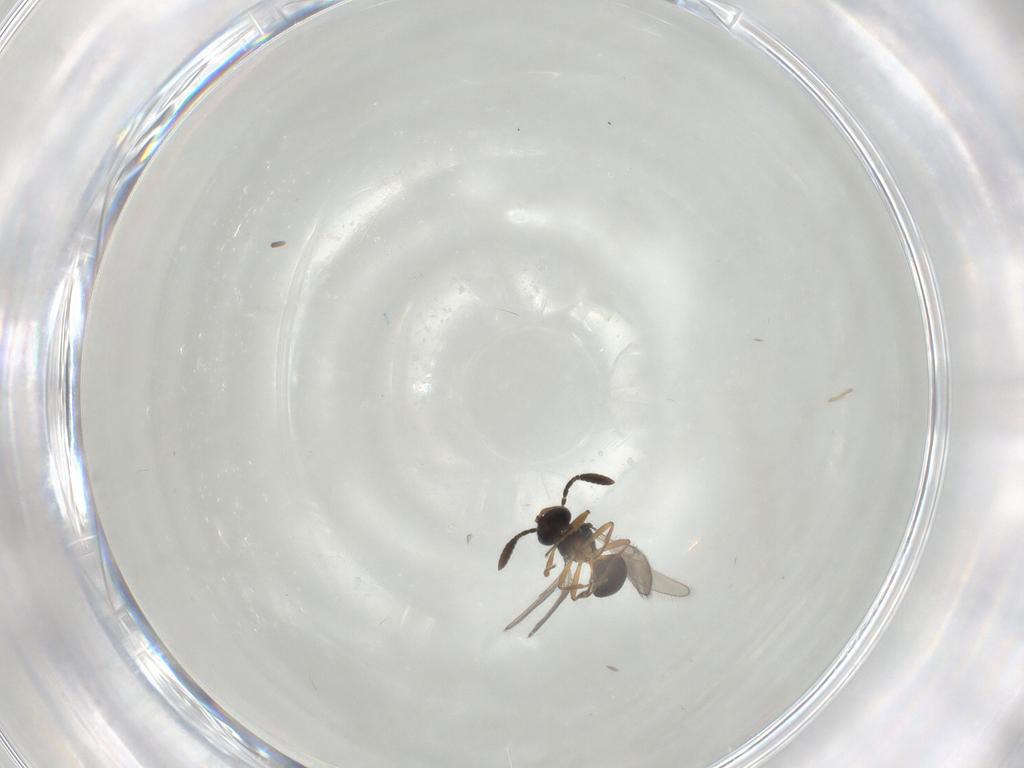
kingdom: Animalia
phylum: Arthropoda
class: Insecta
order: Hymenoptera
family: Scelionidae
